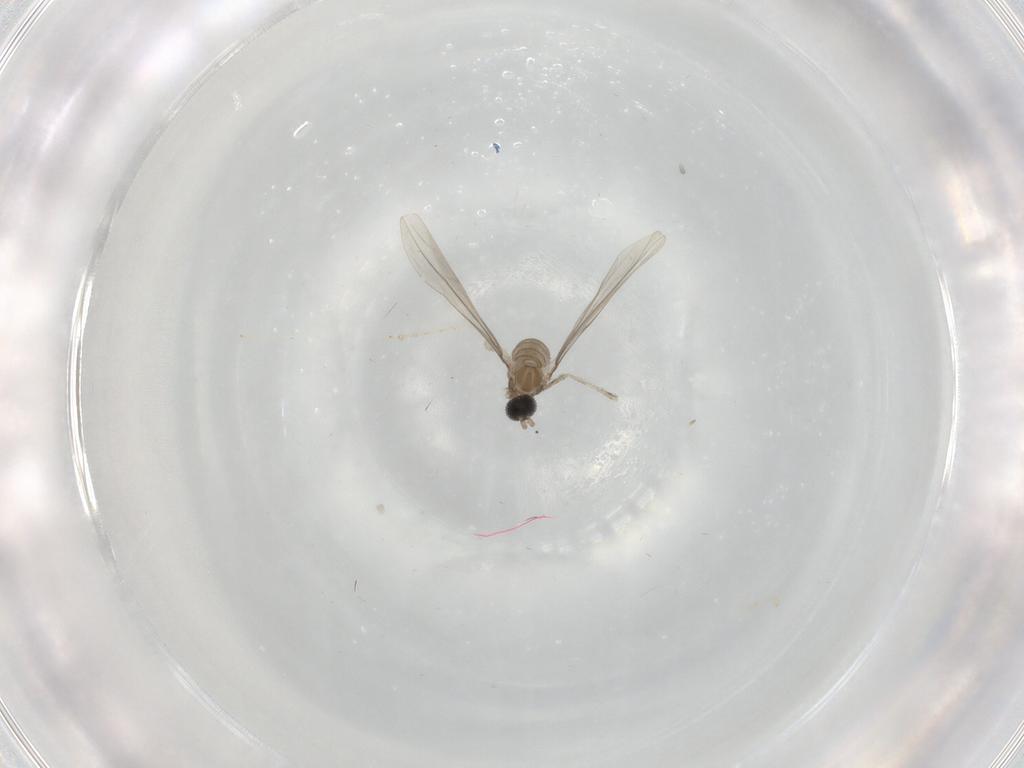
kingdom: Animalia
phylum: Arthropoda
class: Insecta
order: Diptera
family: Cecidomyiidae
